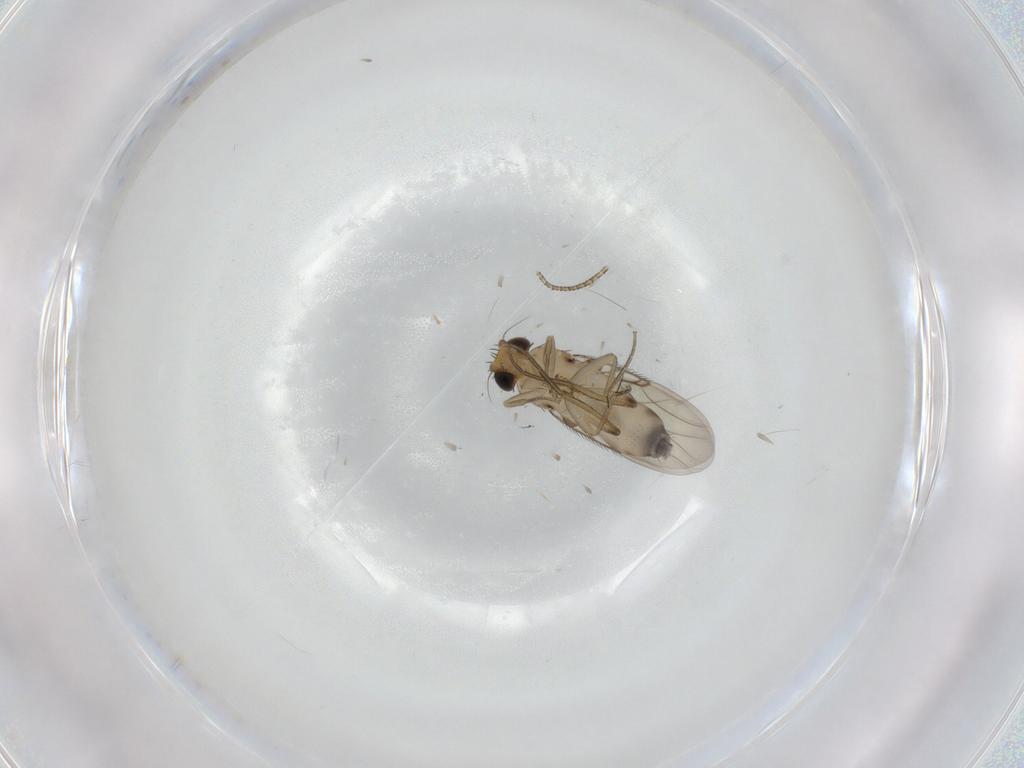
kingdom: Animalia
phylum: Arthropoda
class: Insecta
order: Diptera
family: Phoridae
